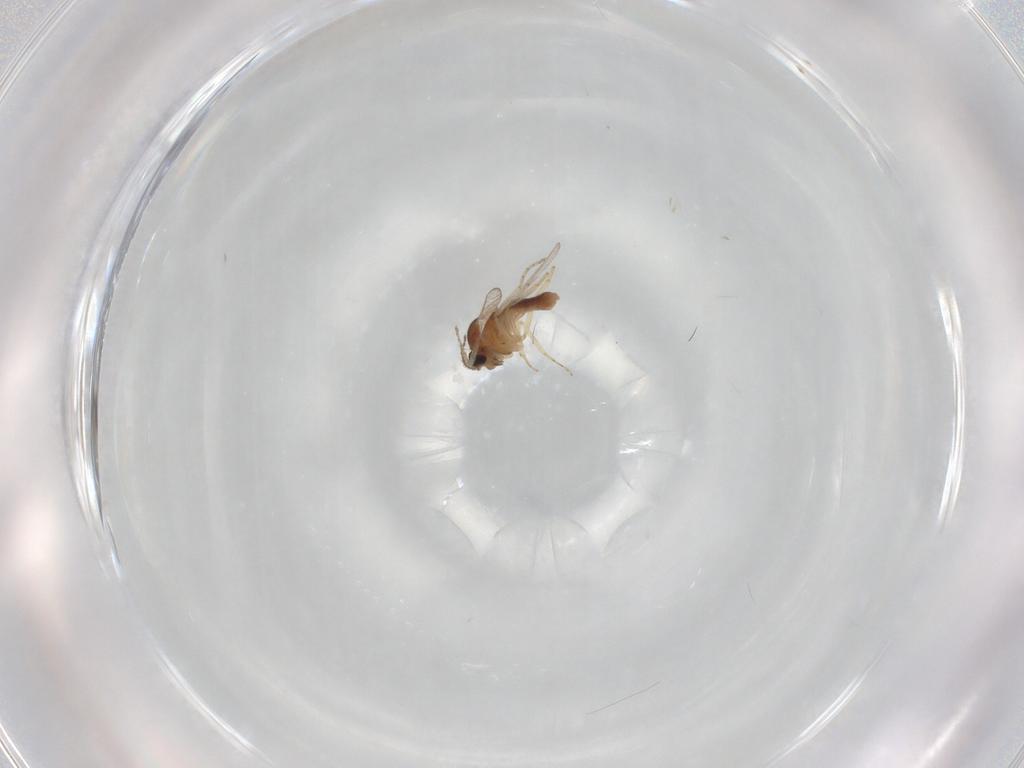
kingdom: Animalia
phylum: Arthropoda
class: Insecta
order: Diptera
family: Ceratopogonidae
